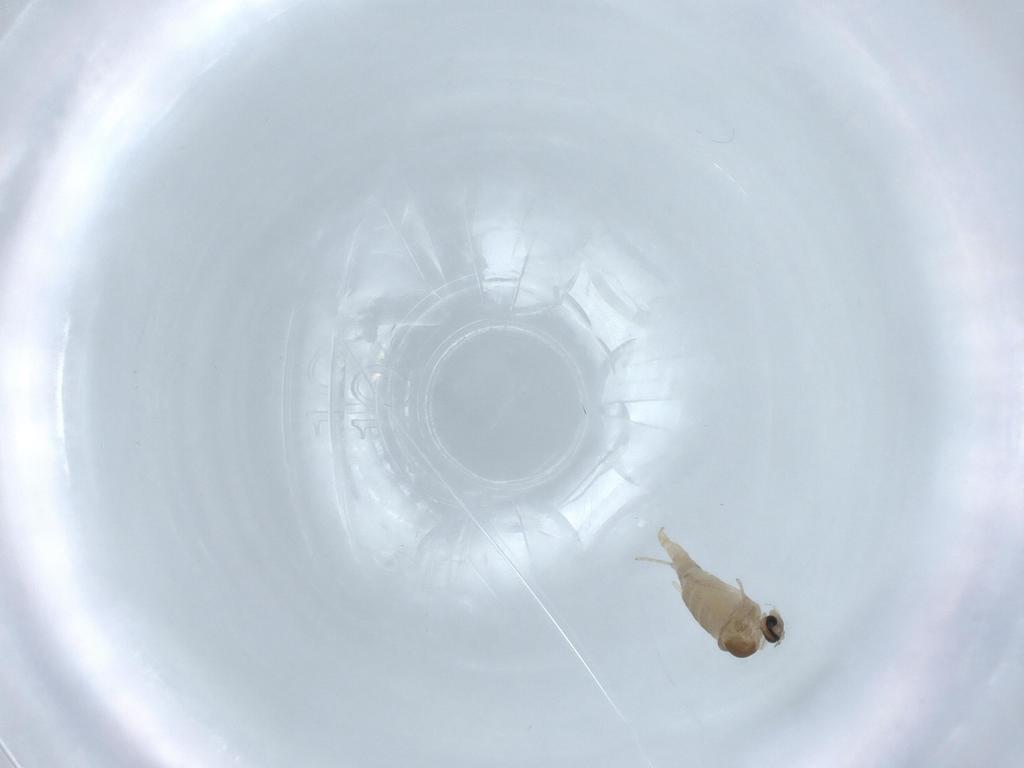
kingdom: Animalia
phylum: Arthropoda
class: Insecta
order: Diptera
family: Cecidomyiidae
